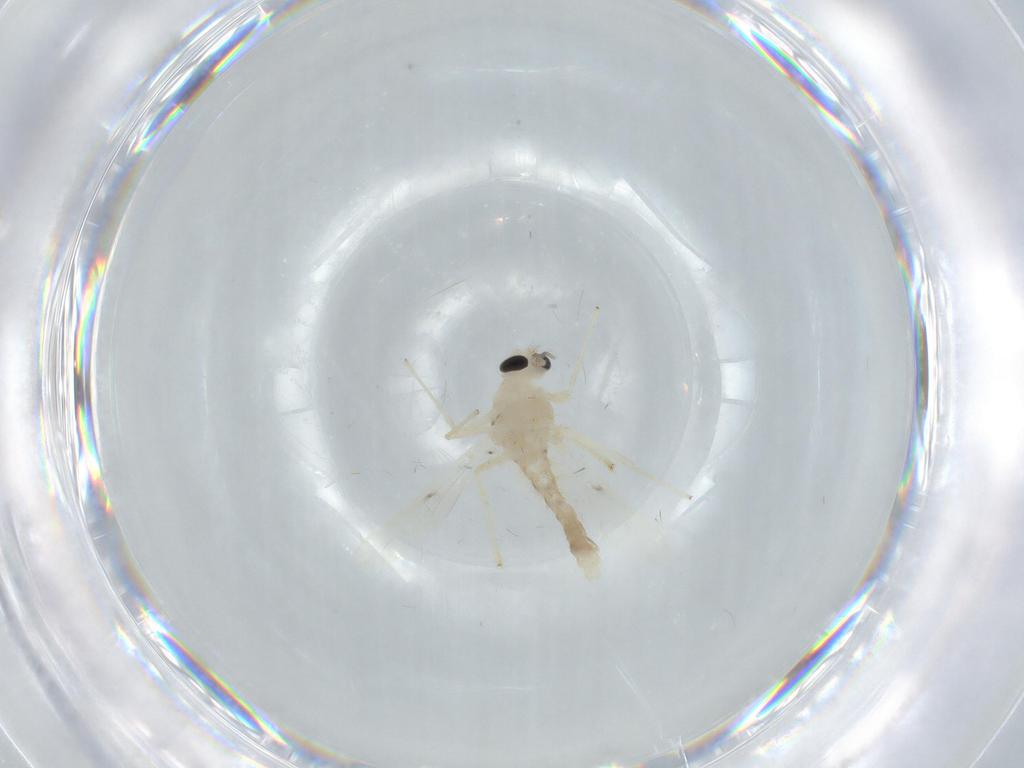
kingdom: Animalia
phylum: Arthropoda
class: Insecta
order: Diptera
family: Chironomidae
